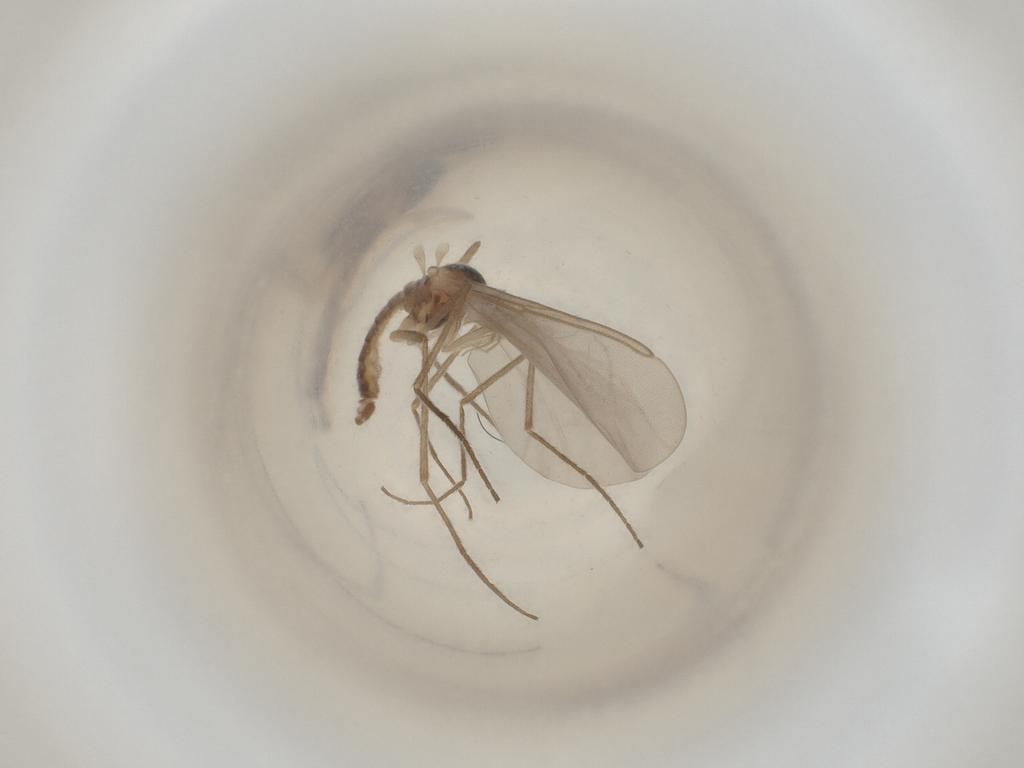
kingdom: Animalia
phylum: Arthropoda
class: Insecta
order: Diptera
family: Cecidomyiidae
